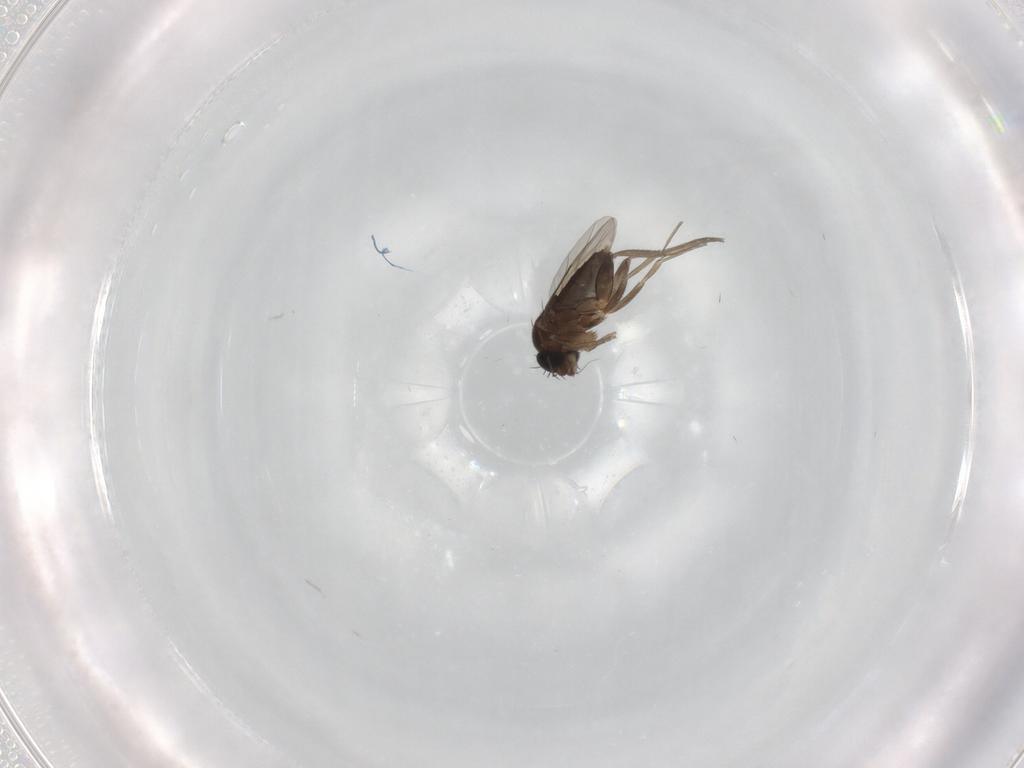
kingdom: Animalia
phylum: Arthropoda
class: Insecta
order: Diptera
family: Phoridae
